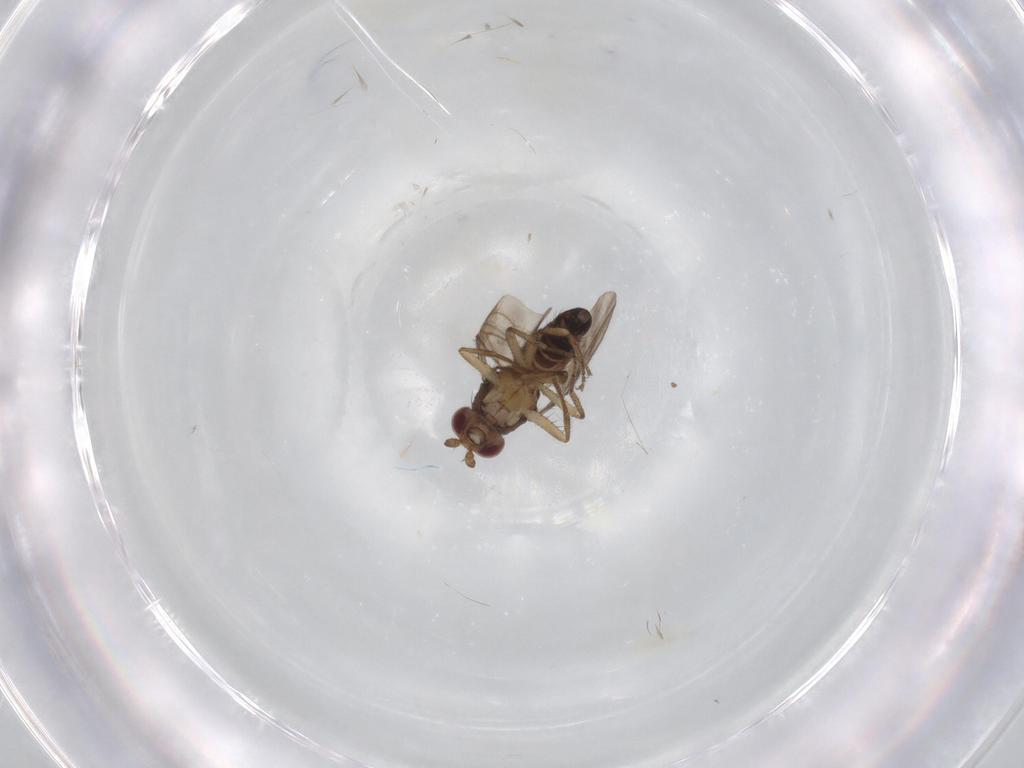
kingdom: Animalia
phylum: Arthropoda
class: Insecta
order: Diptera
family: Sphaeroceridae
